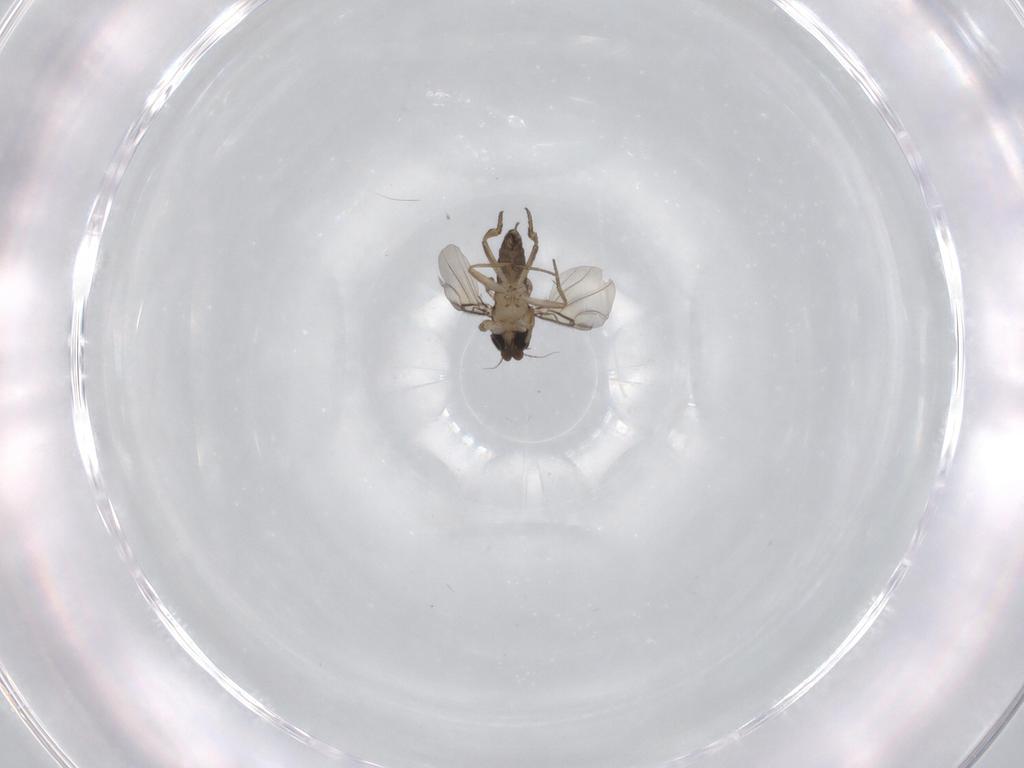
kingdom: Animalia
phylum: Arthropoda
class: Insecta
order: Diptera
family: Phoridae
